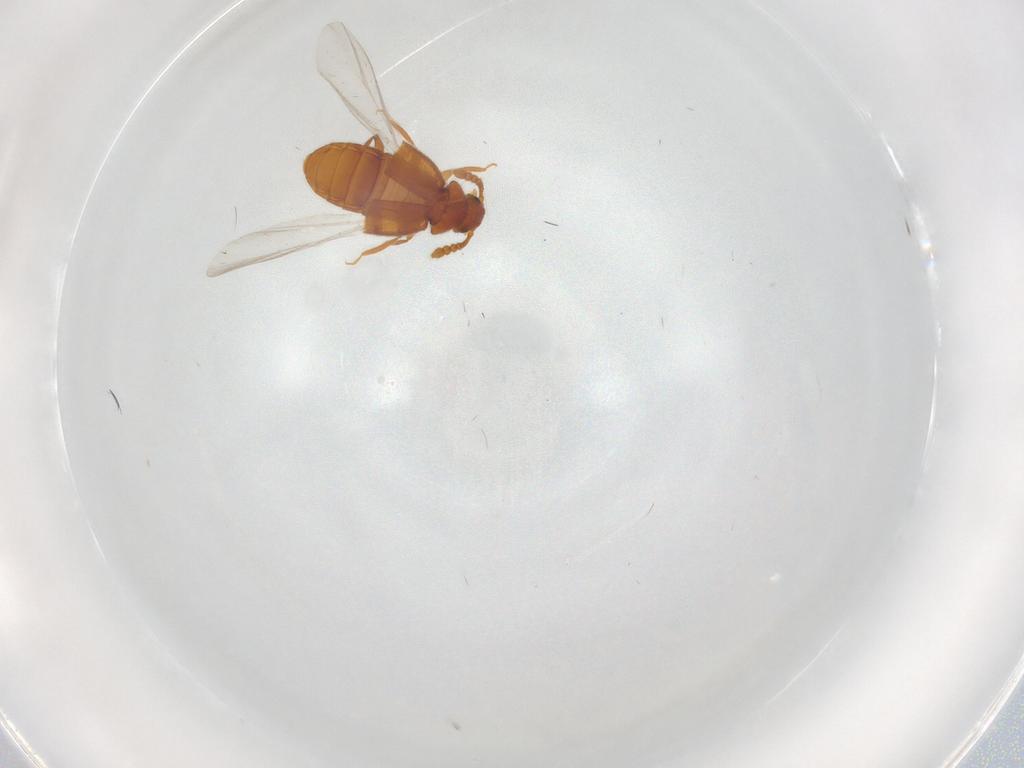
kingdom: Animalia
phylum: Arthropoda
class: Insecta
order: Coleoptera
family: Staphylinidae
